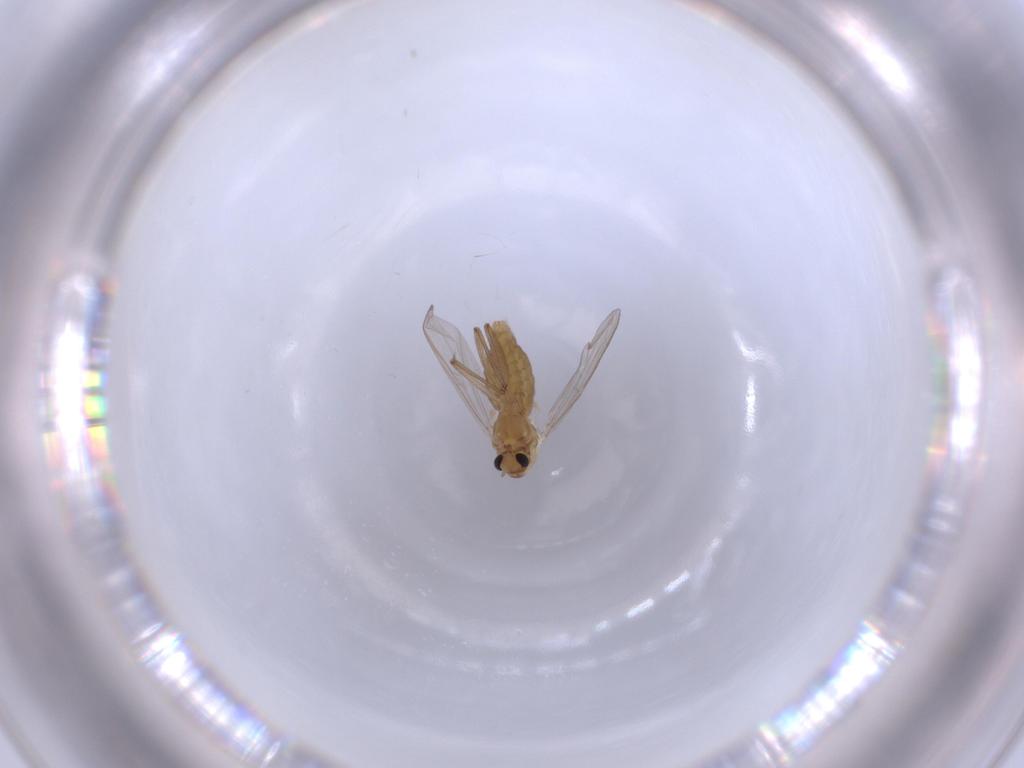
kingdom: Animalia
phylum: Arthropoda
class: Insecta
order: Diptera
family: Chironomidae
